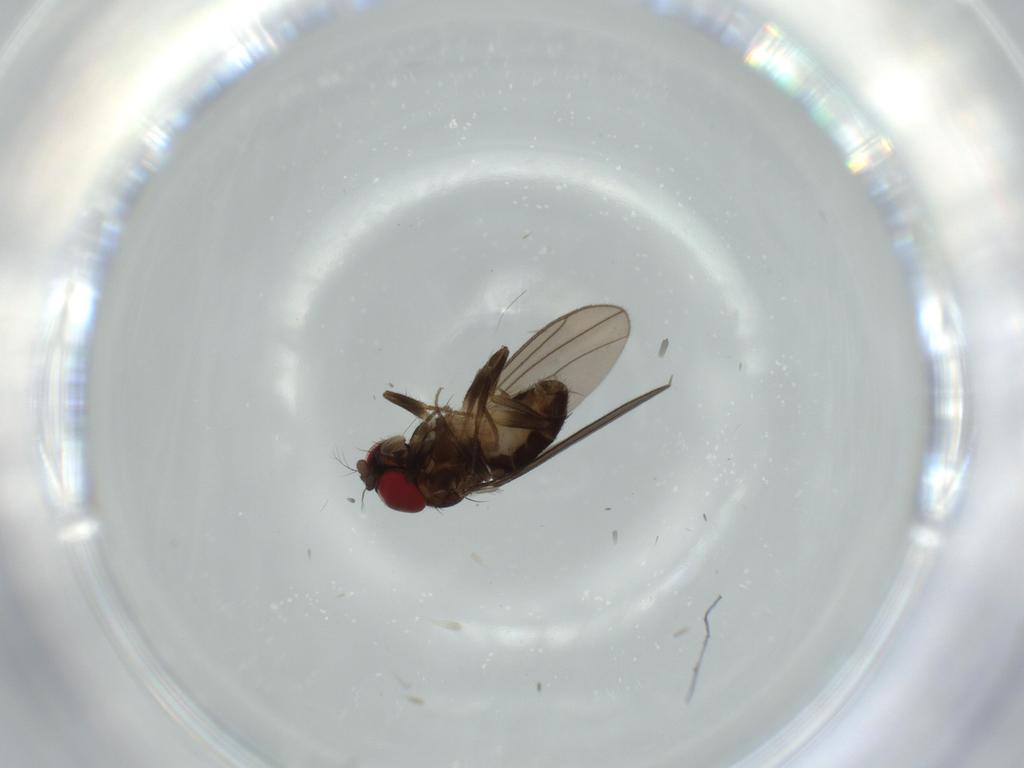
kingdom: Animalia
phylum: Arthropoda
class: Insecta
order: Diptera
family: Drosophilidae
